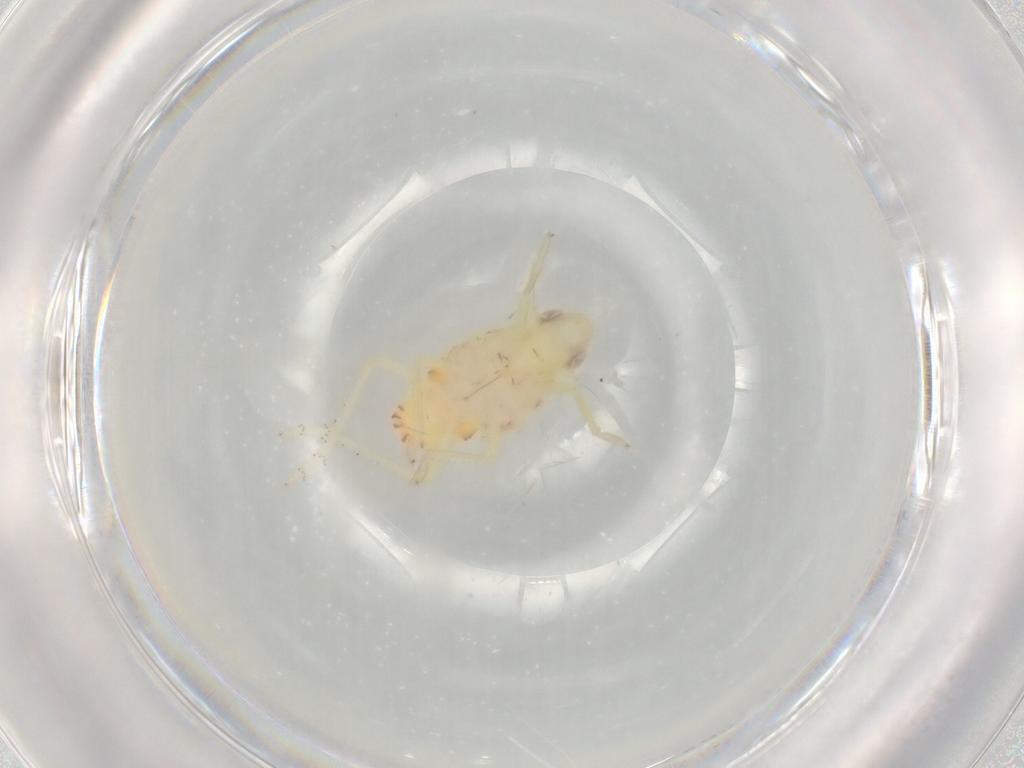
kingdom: Animalia
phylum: Arthropoda
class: Insecta
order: Hemiptera
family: Tropiduchidae
